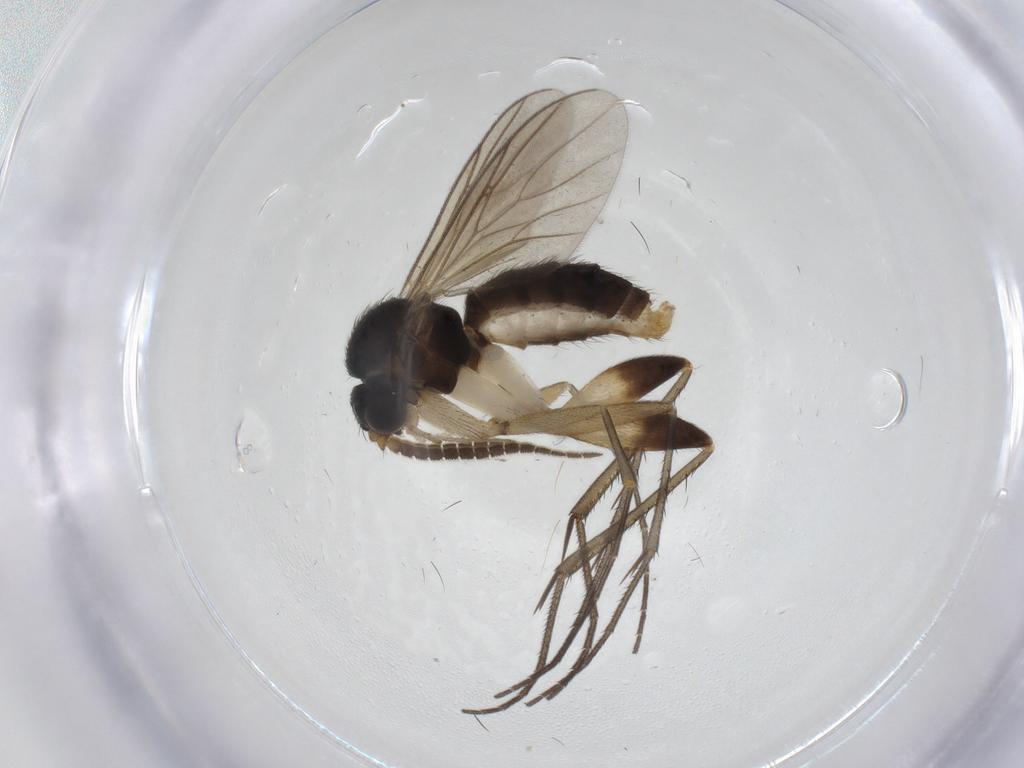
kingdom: Animalia
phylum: Arthropoda
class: Insecta
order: Diptera
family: Mycetophilidae
